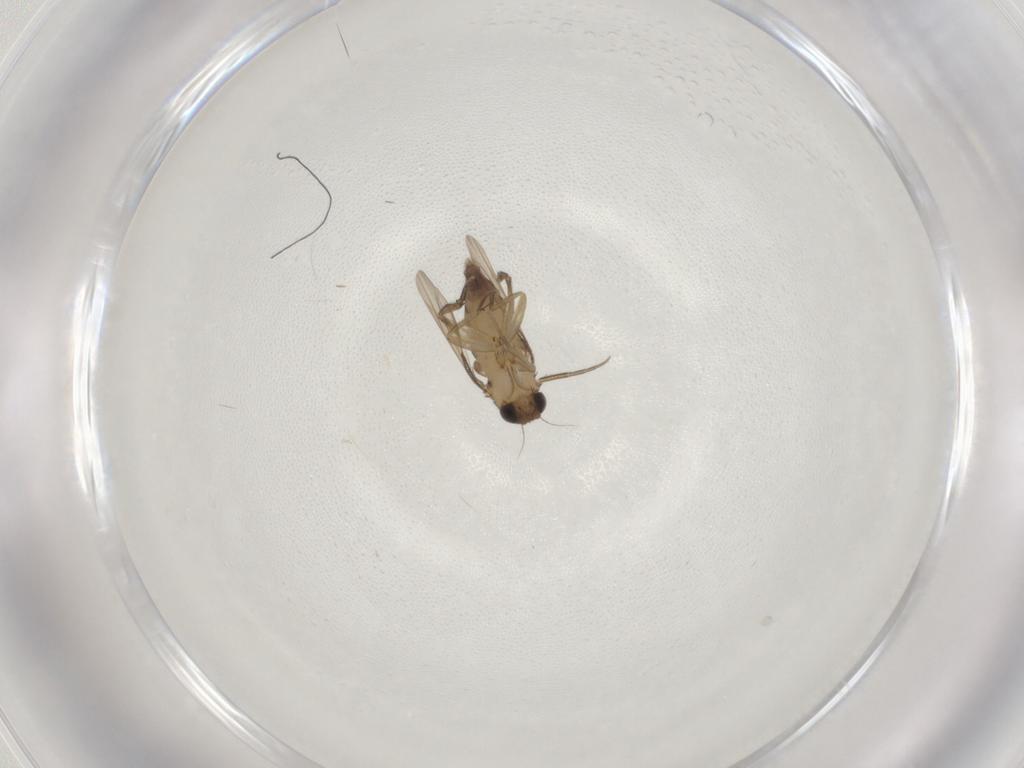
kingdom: Animalia
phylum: Arthropoda
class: Insecta
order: Diptera
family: Phoridae
